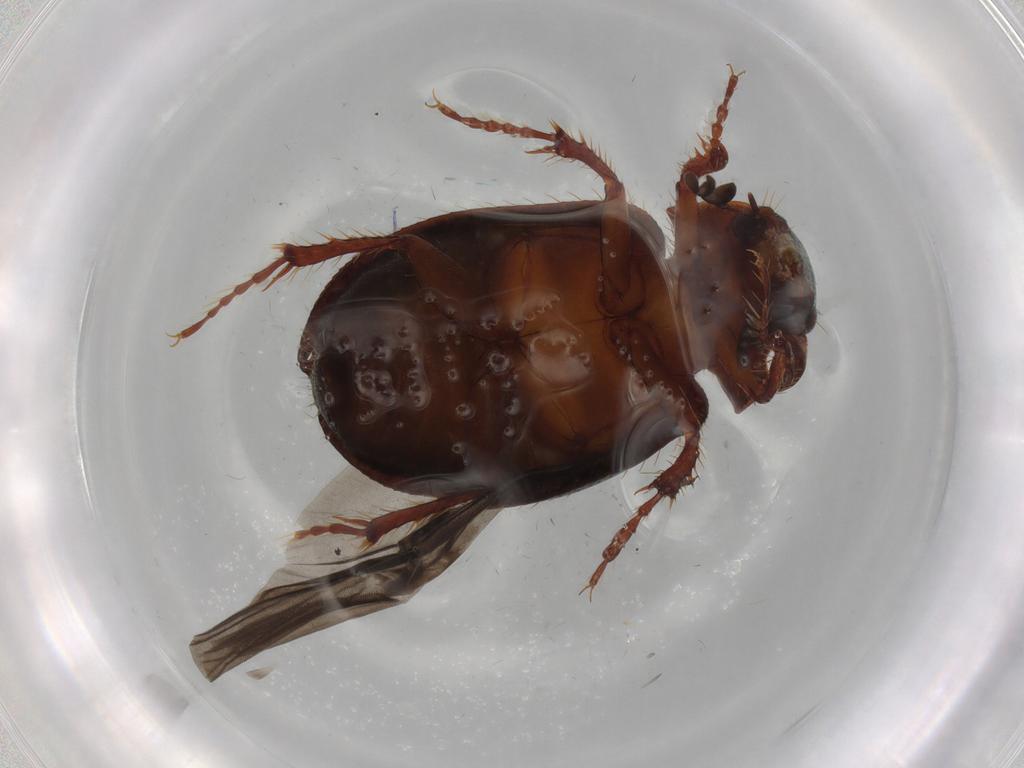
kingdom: Animalia
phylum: Arthropoda
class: Insecta
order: Coleoptera
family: Hybosoridae
